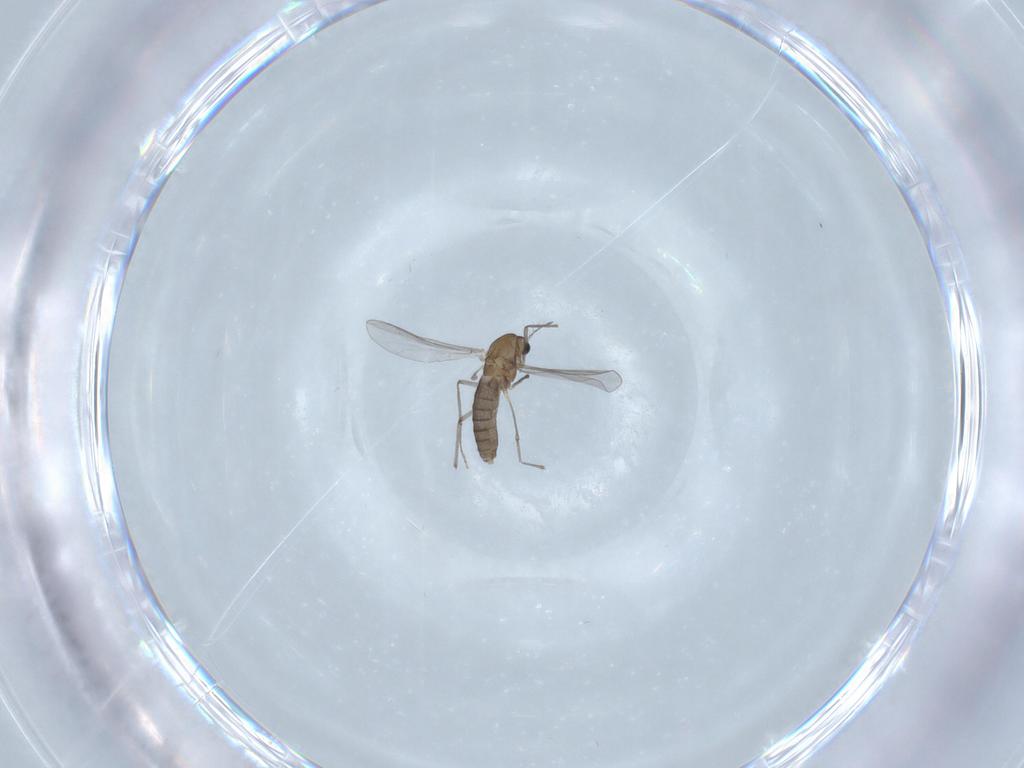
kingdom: Animalia
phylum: Arthropoda
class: Insecta
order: Diptera
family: Chironomidae
